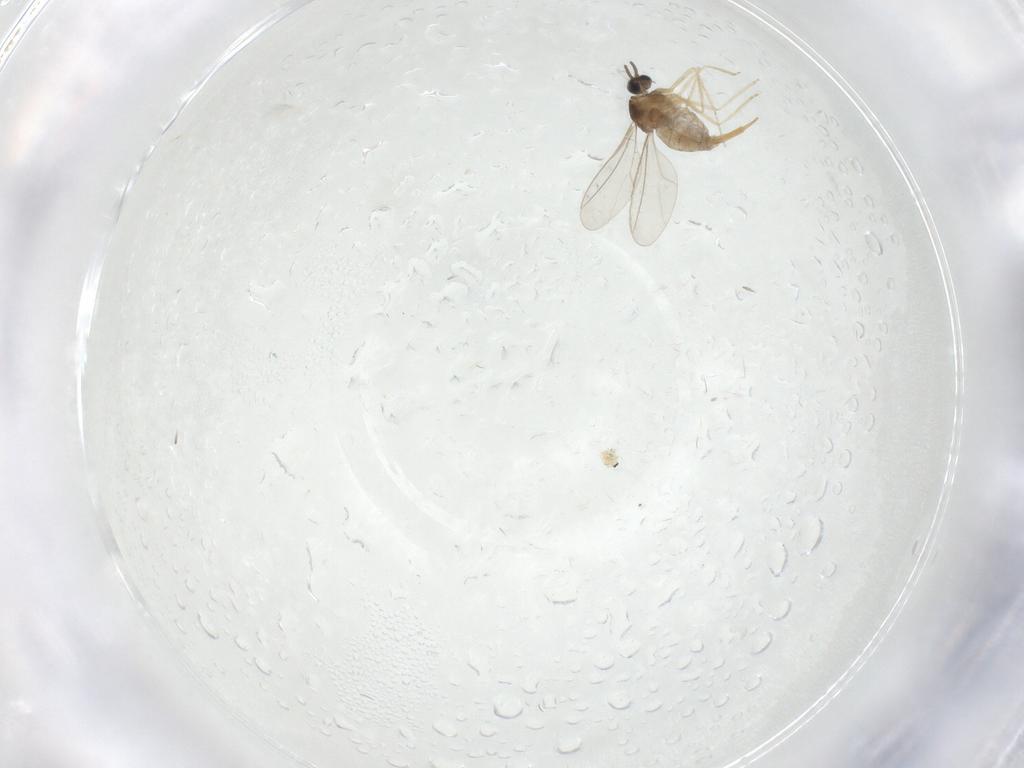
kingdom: Animalia
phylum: Arthropoda
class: Insecta
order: Diptera
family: Cecidomyiidae
